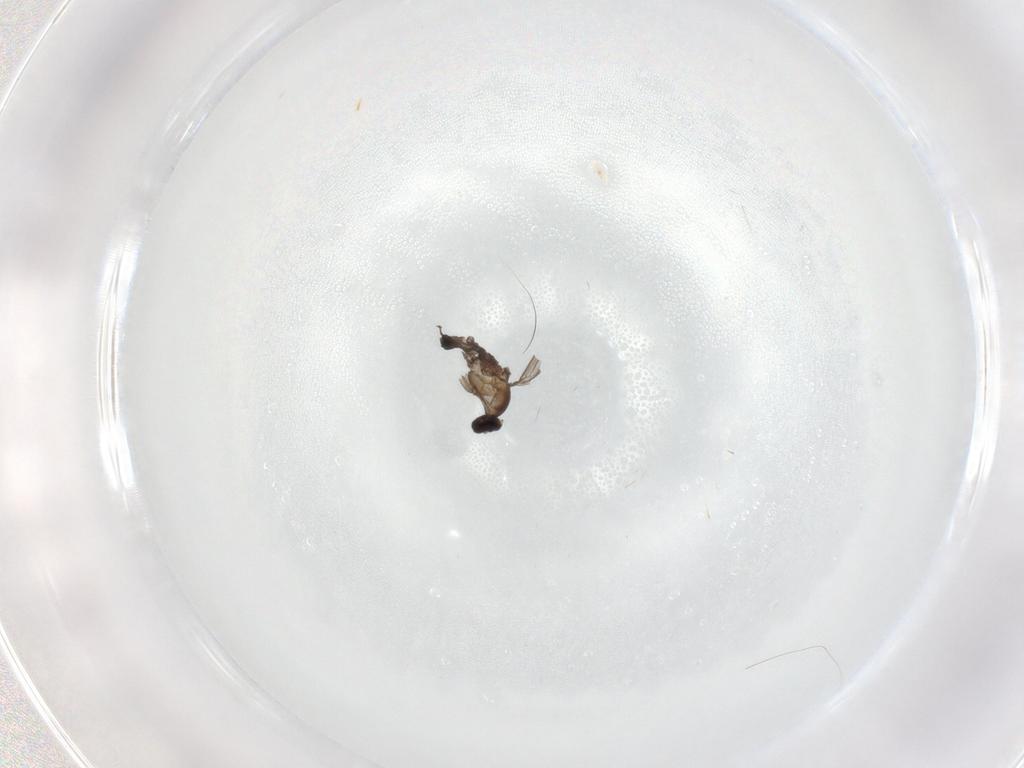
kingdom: Animalia
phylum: Arthropoda
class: Insecta
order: Diptera
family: Cecidomyiidae
